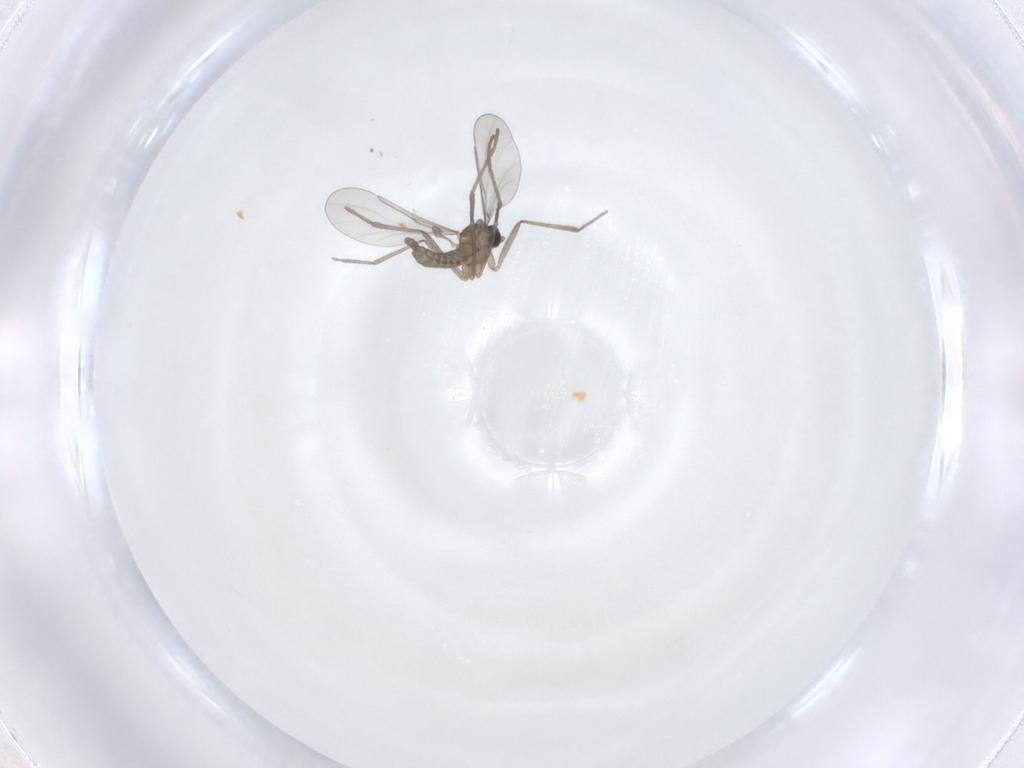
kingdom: Animalia
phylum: Arthropoda
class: Insecta
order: Diptera
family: Cecidomyiidae
